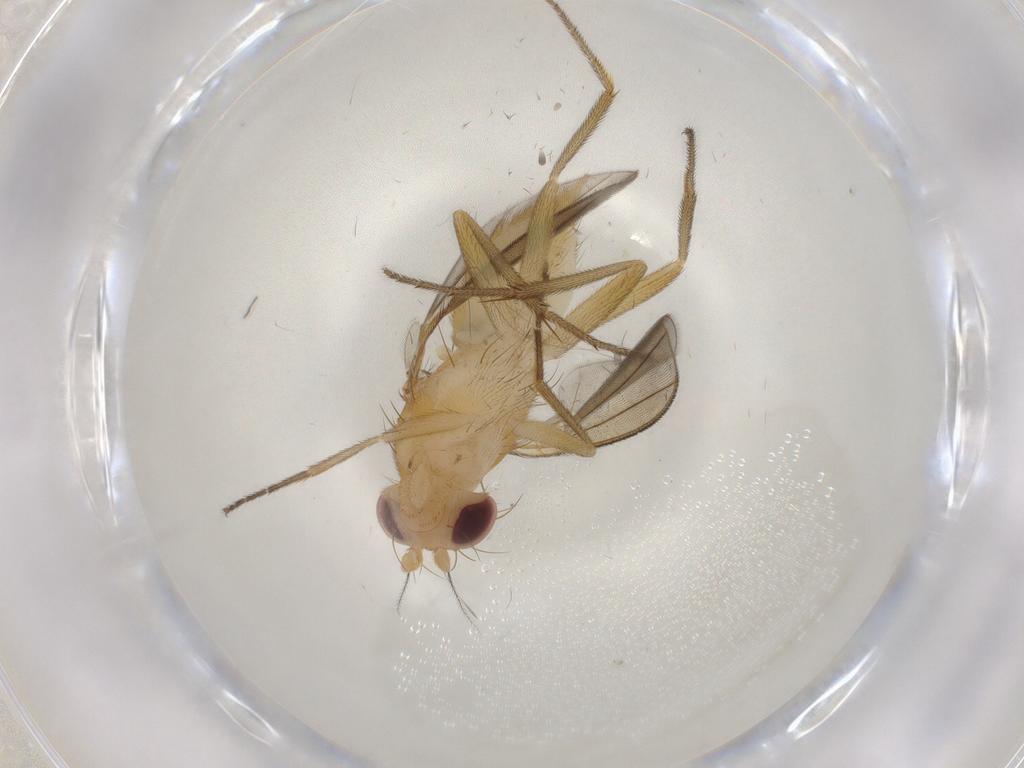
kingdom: Animalia
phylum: Arthropoda
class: Insecta
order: Diptera
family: Clusiidae
